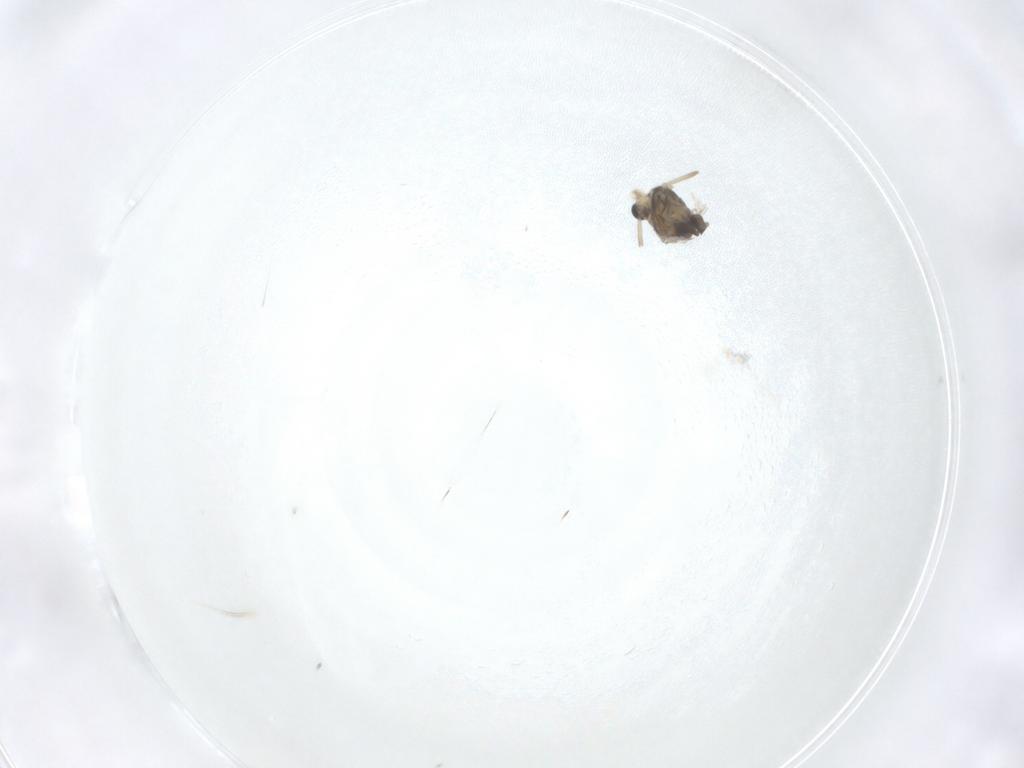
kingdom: Animalia
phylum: Arthropoda
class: Insecta
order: Diptera
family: Chironomidae
